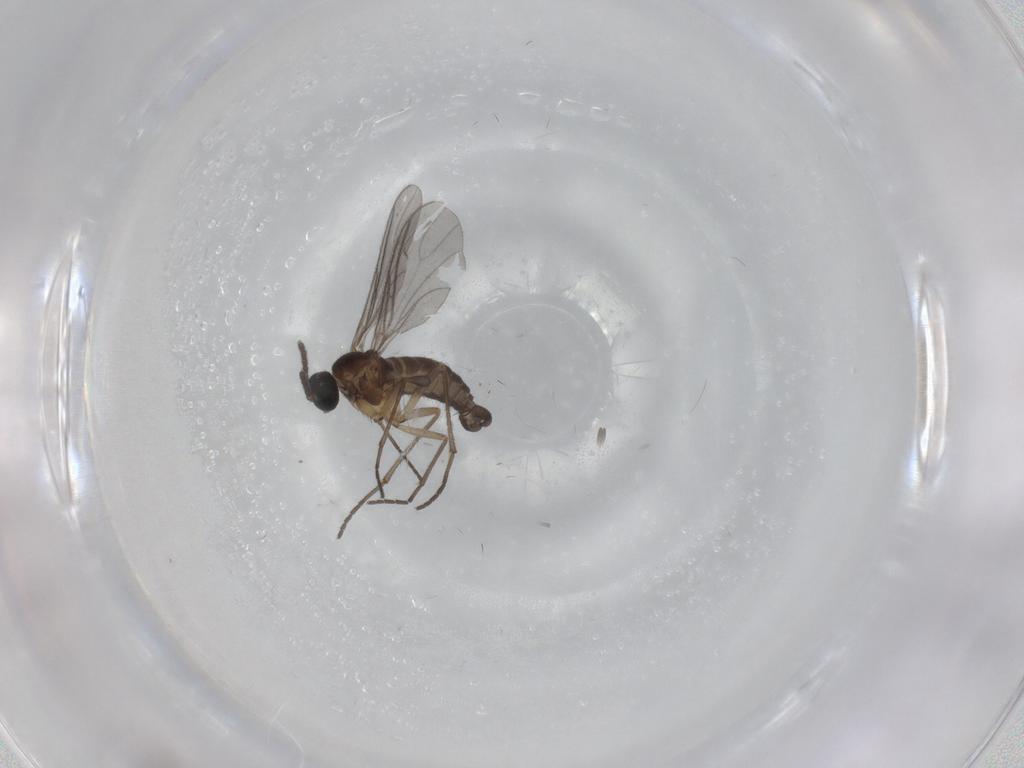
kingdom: Animalia
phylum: Arthropoda
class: Insecta
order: Diptera
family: Sciaridae
